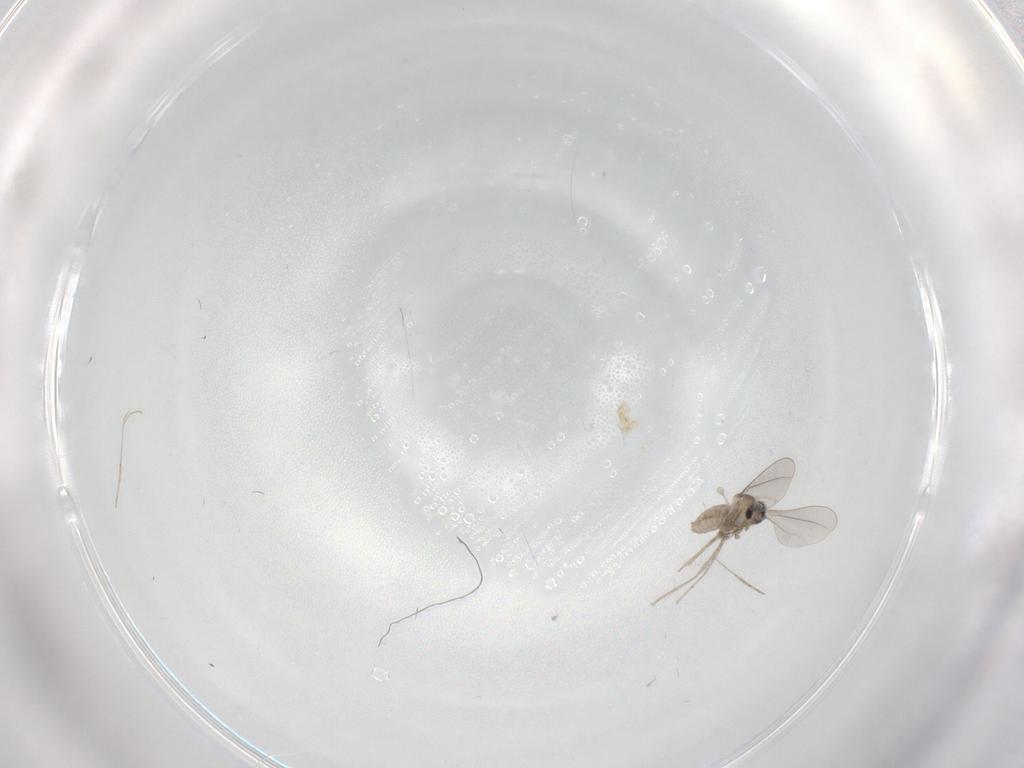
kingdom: Animalia
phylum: Arthropoda
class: Insecta
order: Diptera
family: Cecidomyiidae
